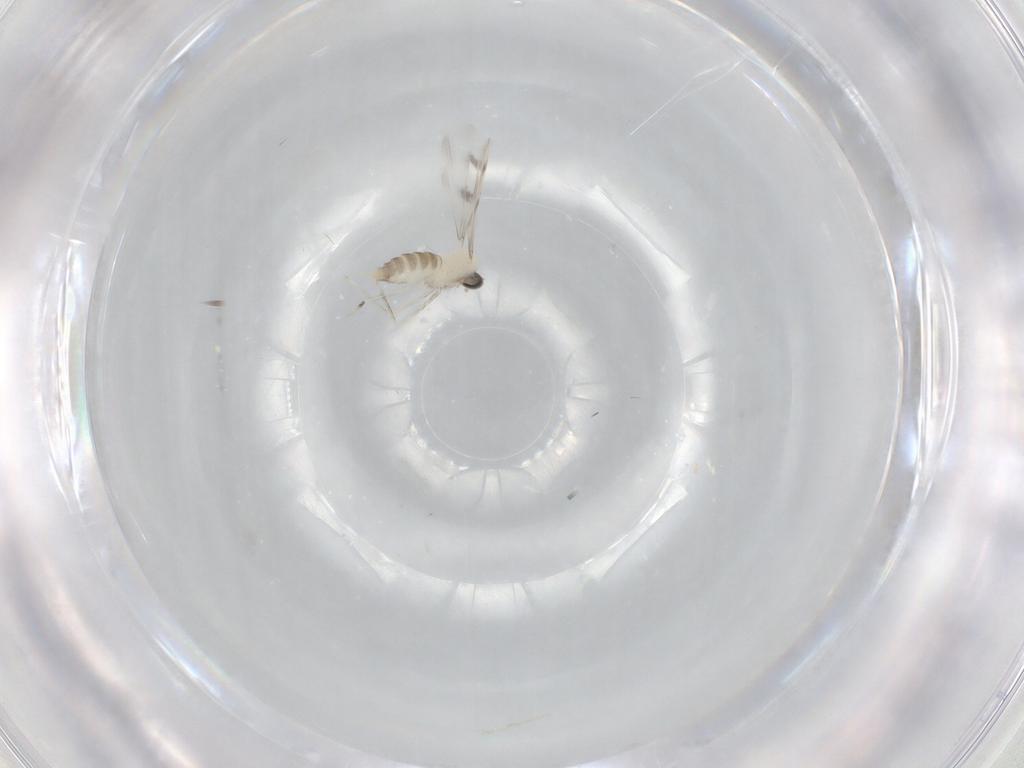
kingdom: Animalia
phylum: Arthropoda
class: Insecta
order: Diptera
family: Cecidomyiidae
